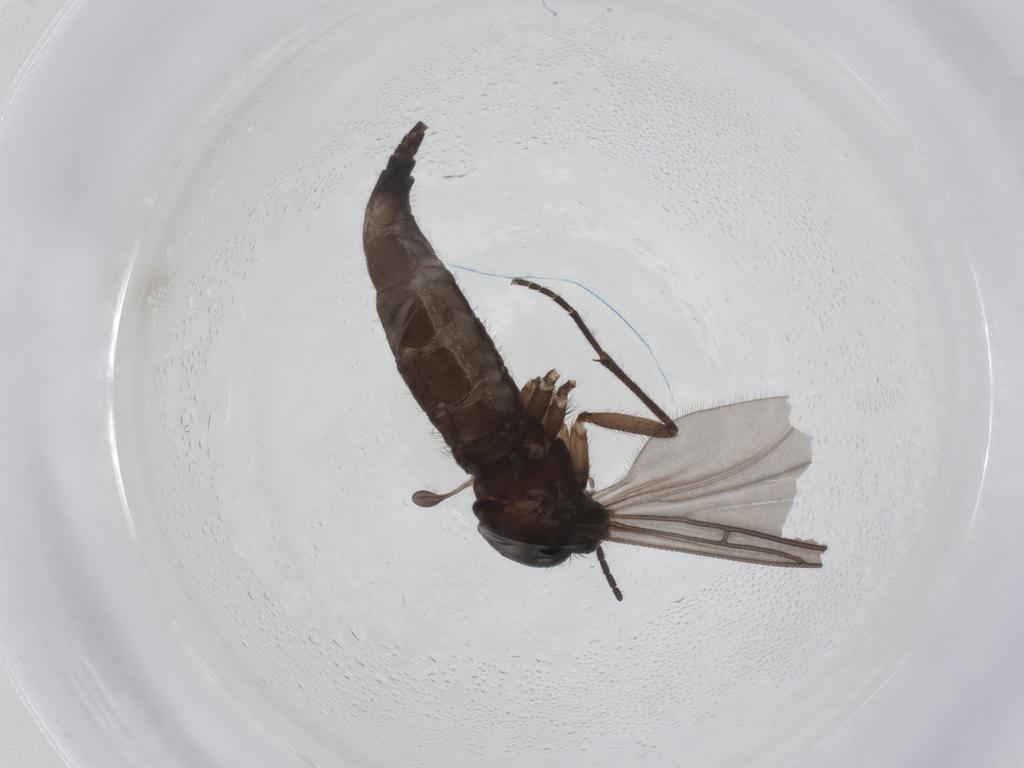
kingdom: Animalia
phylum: Arthropoda
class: Insecta
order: Diptera
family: Sciaridae
